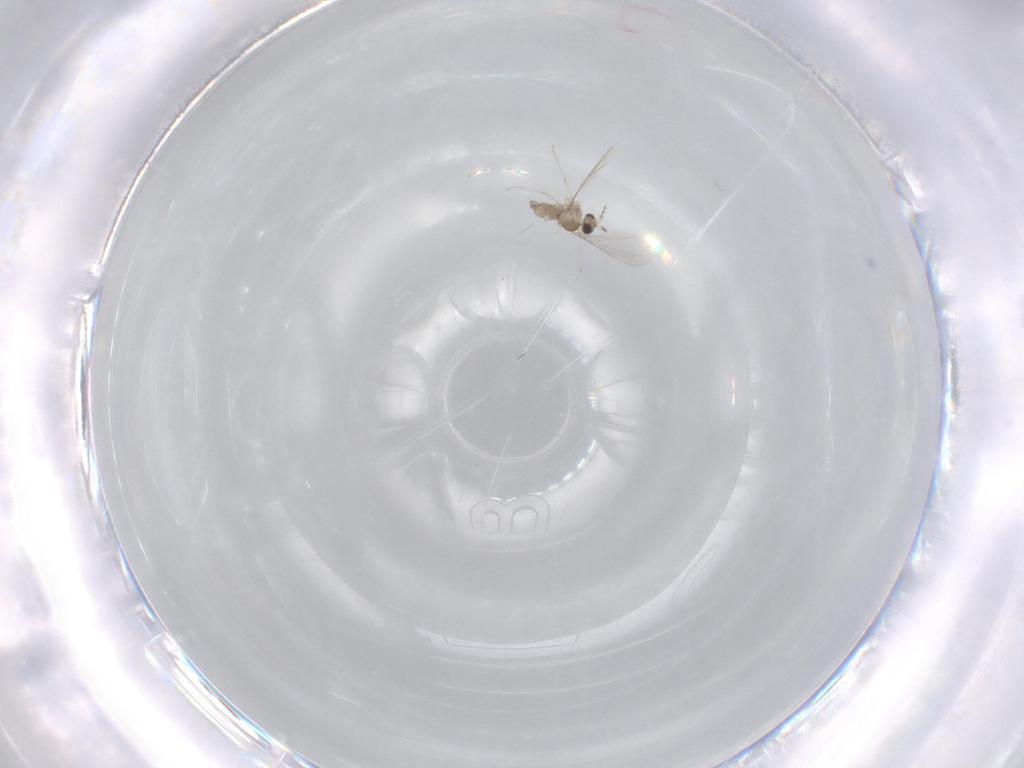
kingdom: Animalia
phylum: Arthropoda
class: Insecta
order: Diptera
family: Cecidomyiidae
